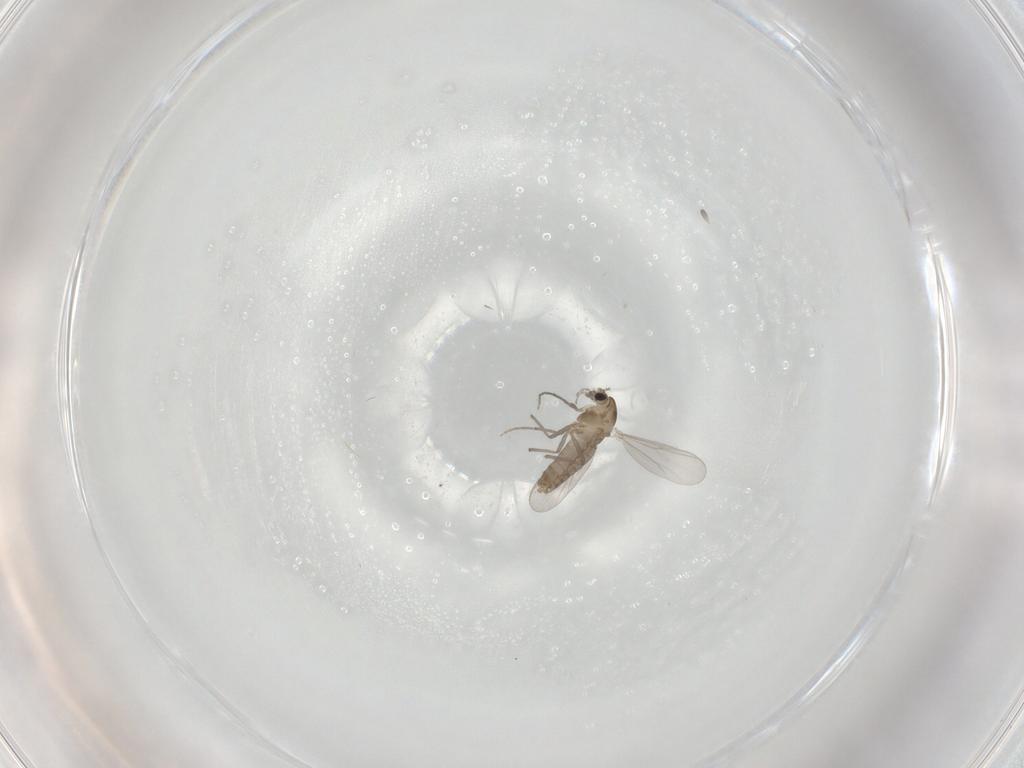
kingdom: Animalia
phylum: Arthropoda
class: Insecta
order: Diptera
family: Chironomidae
